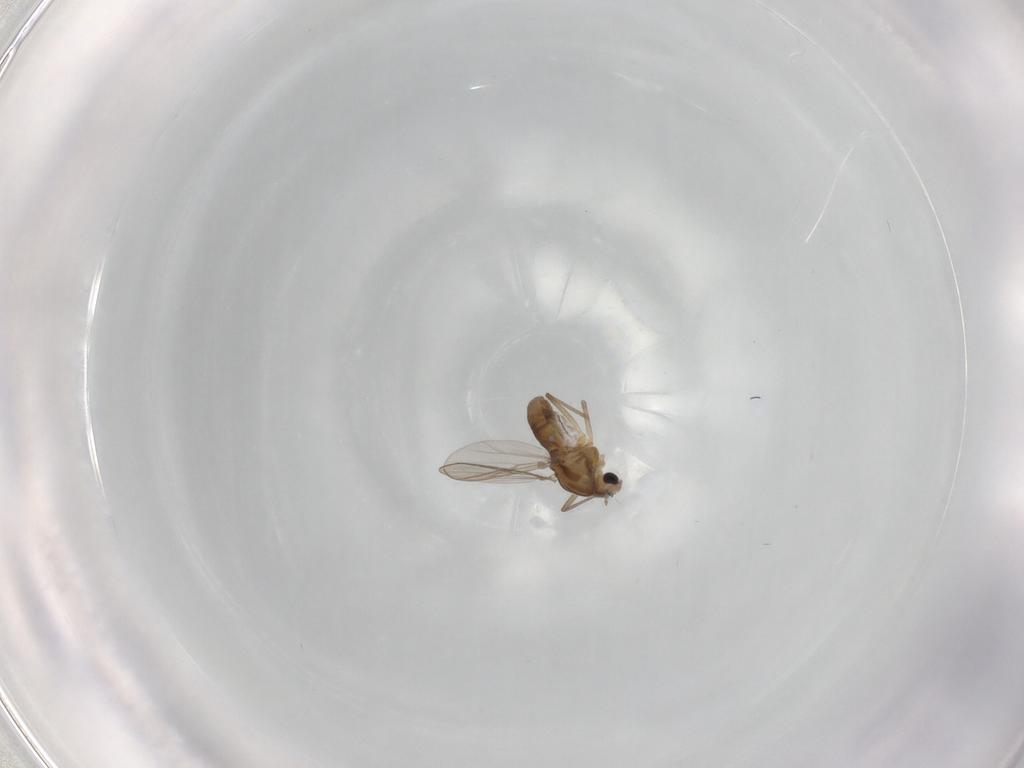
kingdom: Animalia
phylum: Arthropoda
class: Insecta
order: Diptera
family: Chironomidae
